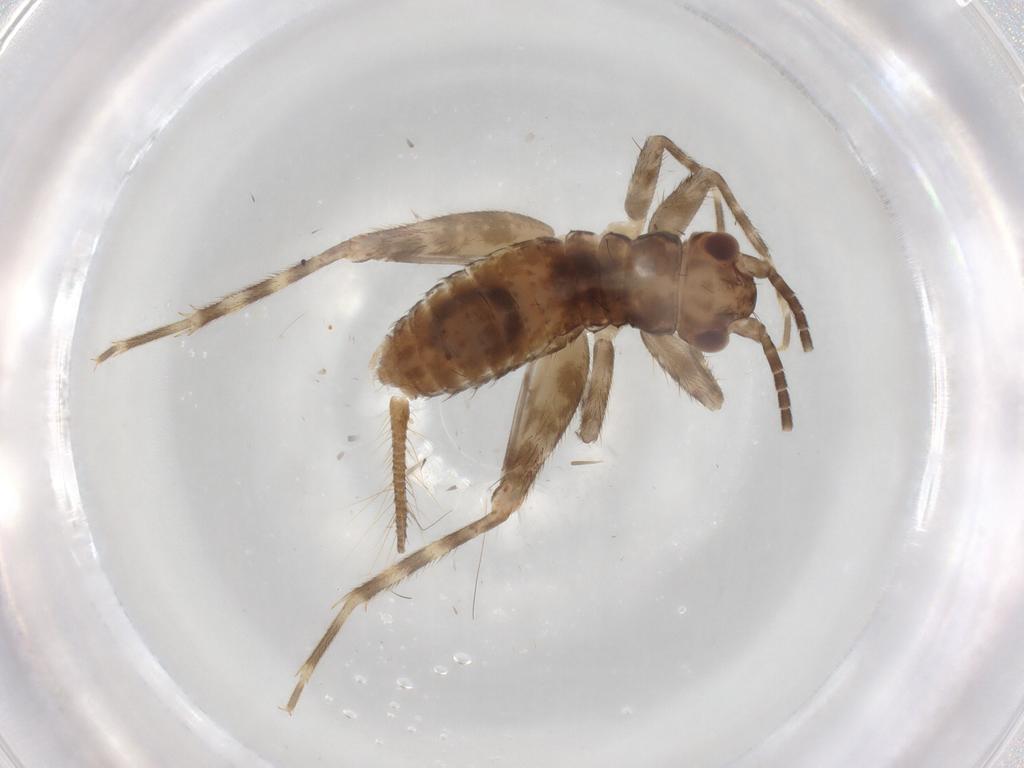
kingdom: Animalia
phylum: Arthropoda
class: Insecta
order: Orthoptera
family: Gryllidae
